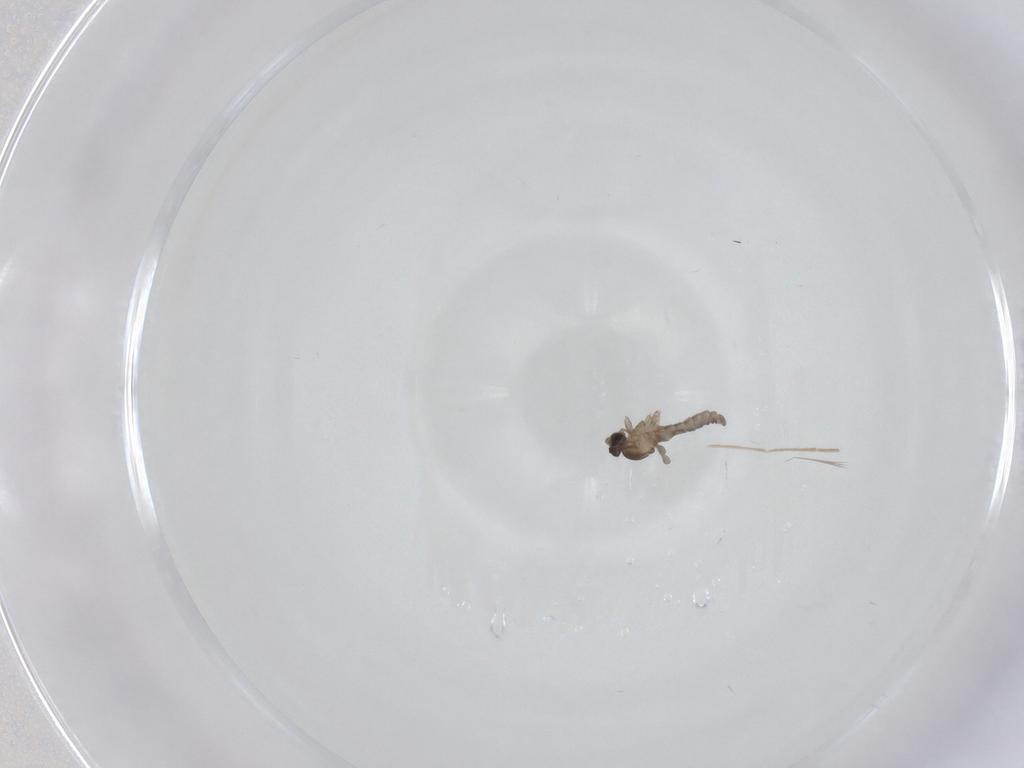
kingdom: Animalia
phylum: Arthropoda
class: Insecta
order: Diptera
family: Cecidomyiidae
